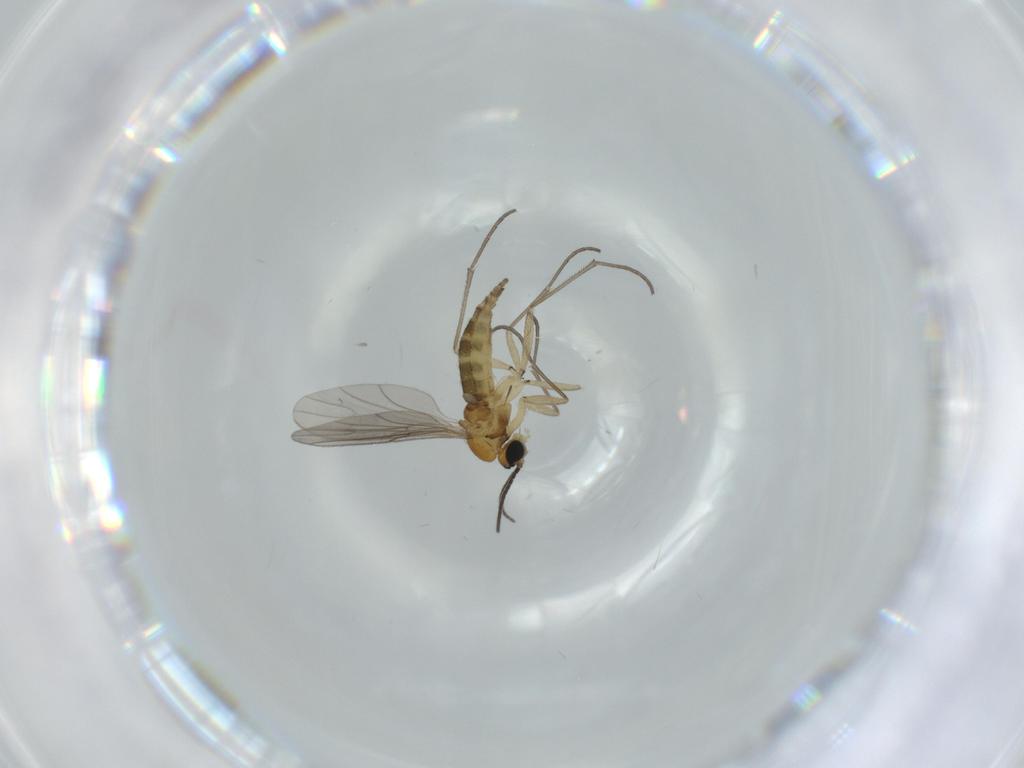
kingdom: Animalia
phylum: Arthropoda
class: Insecta
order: Diptera
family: Phoridae
